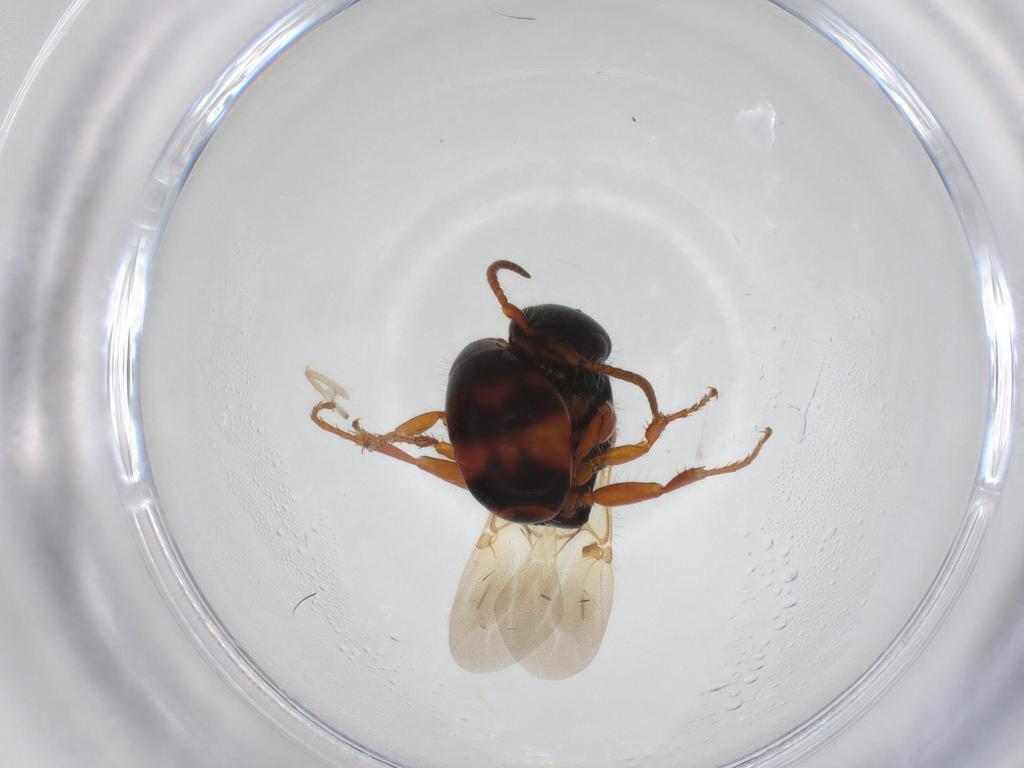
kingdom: Animalia
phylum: Arthropoda
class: Insecta
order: Hymenoptera
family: Bethylidae
